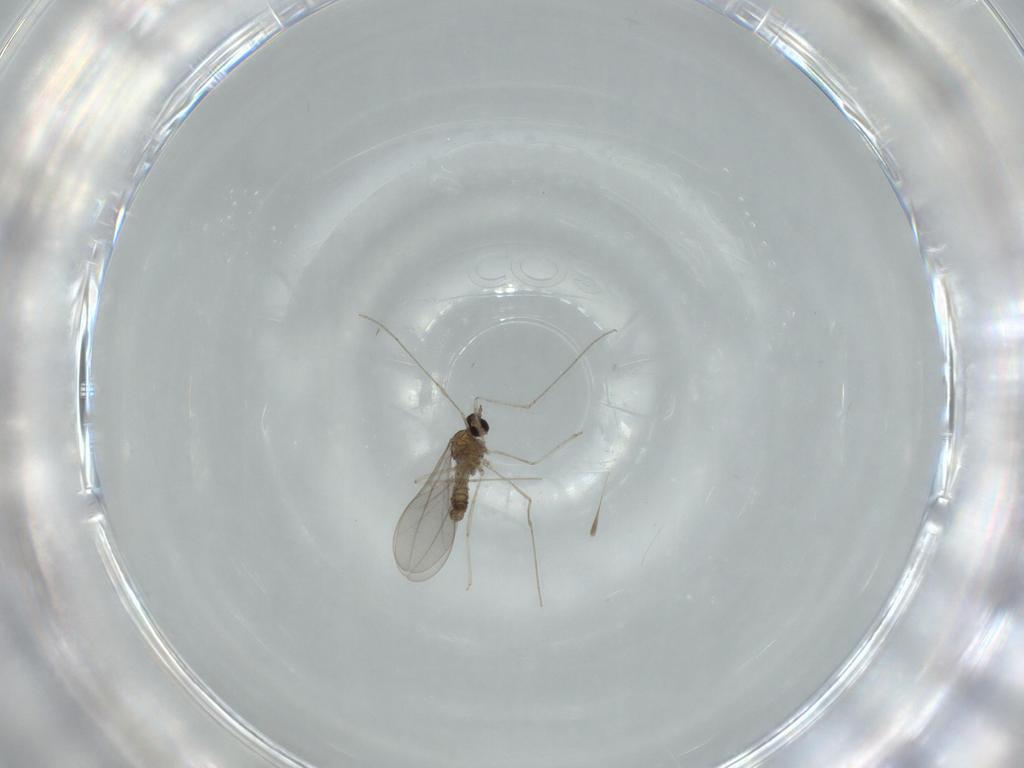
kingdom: Animalia
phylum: Arthropoda
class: Insecta
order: Diptera
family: Cecidomyiidae
